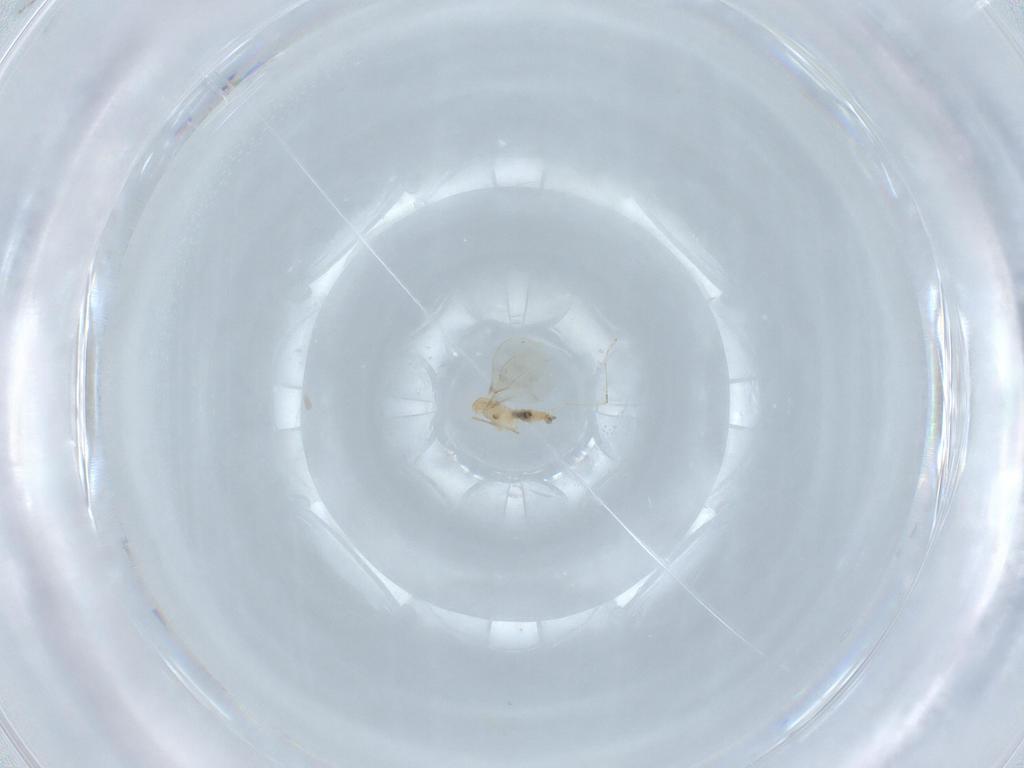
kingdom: Animalia
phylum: Arthropoda
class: Insecta
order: Diptera
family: Cecidomyiidae
